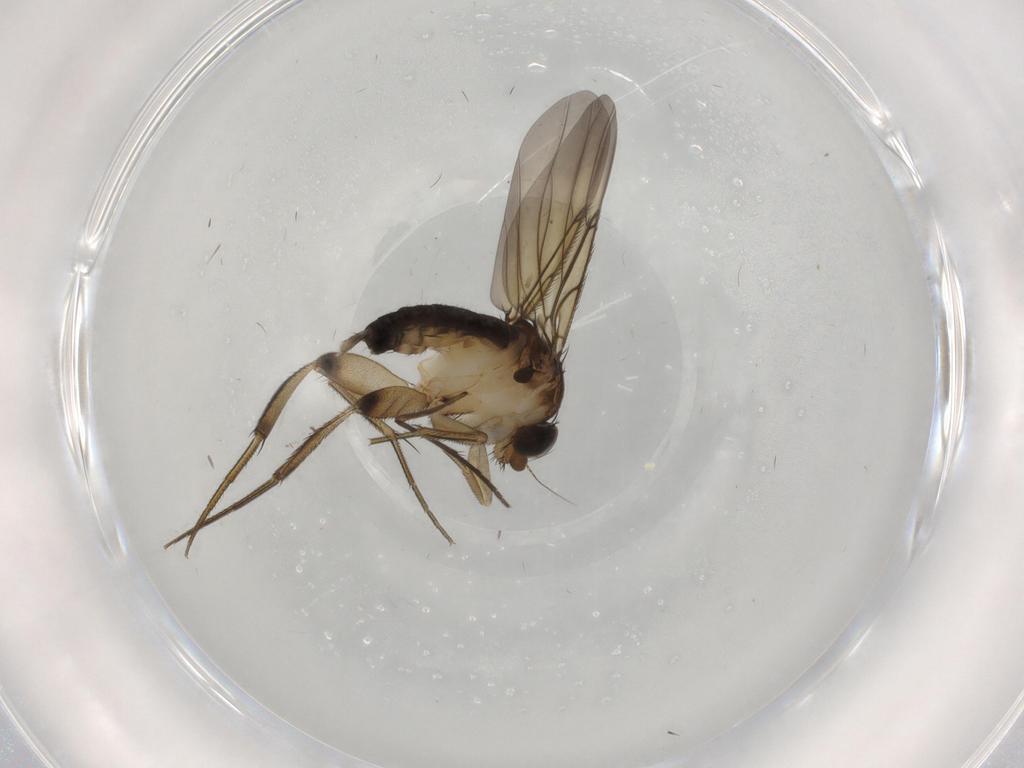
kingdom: Animalia
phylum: Arthropoda
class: Insecta
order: Diptera
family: Sciaridae
